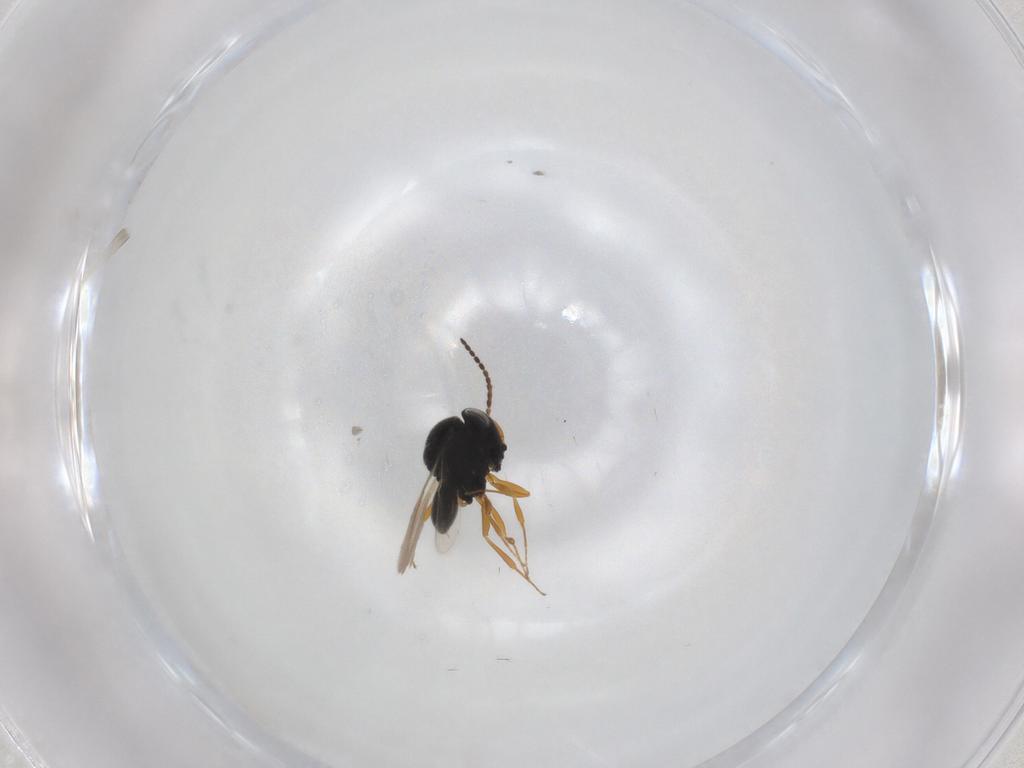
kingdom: Animalia
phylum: Arthropoda
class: Insecta
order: Hymenoptera
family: Scelionidae
